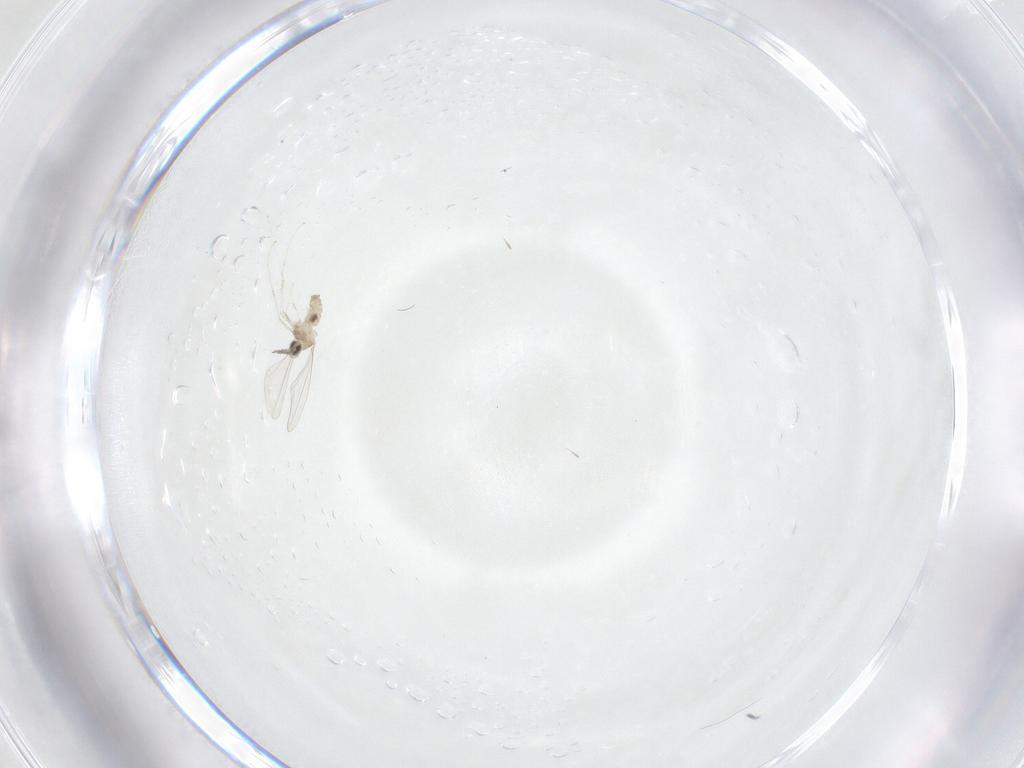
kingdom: Animalia
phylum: Arthropoda
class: Insecta
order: Diptera
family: Cecidomyiidae
